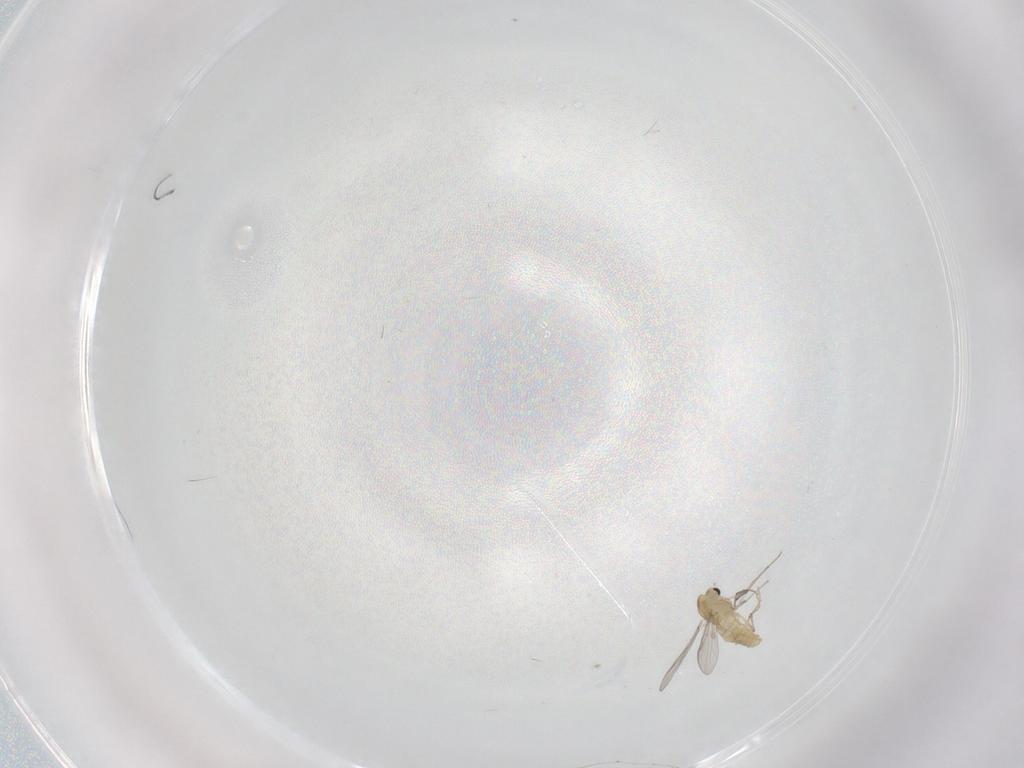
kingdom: Animalia
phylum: Arthropoda
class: Insecta
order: Diptera
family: Chironomidae
